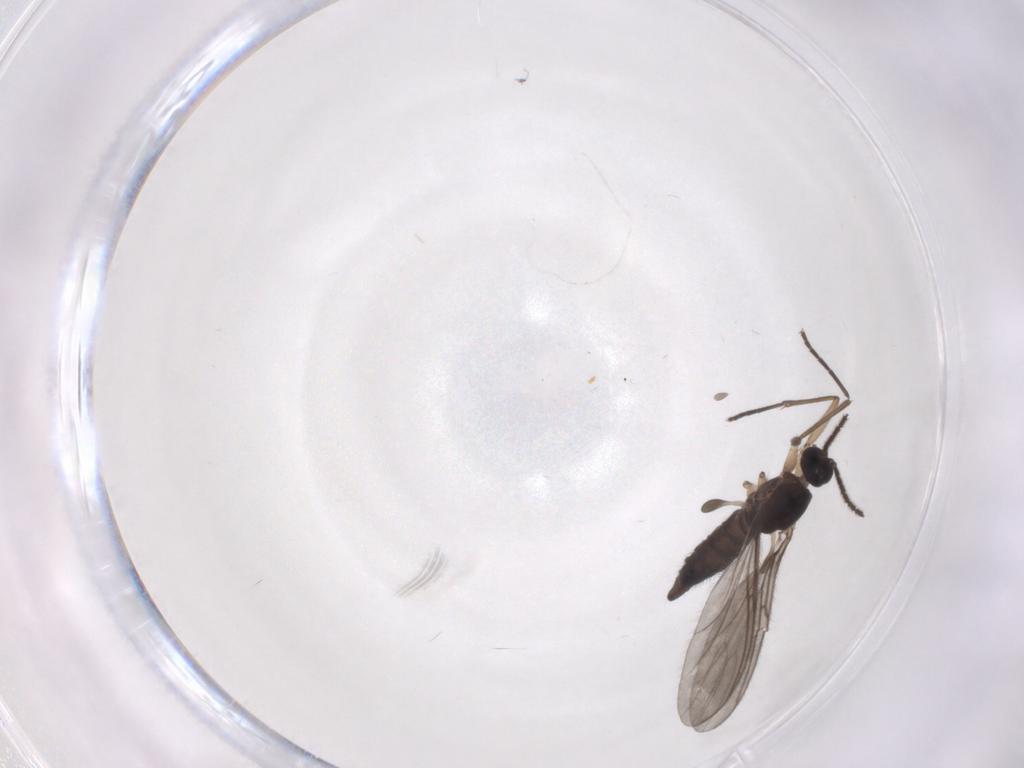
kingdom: Animalia
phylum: Arthropoda
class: Insecta
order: Diptera
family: Sciaridae
